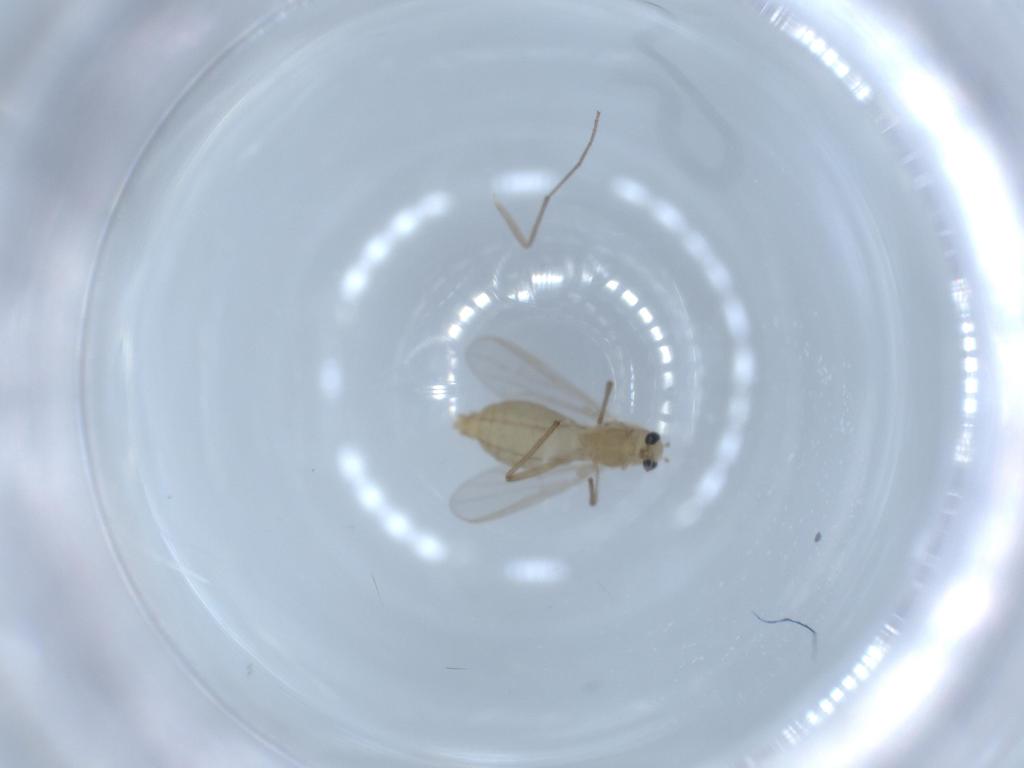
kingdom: Animalia
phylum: Arthropoda
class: Insecta
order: Diptera
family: Chironomidae
